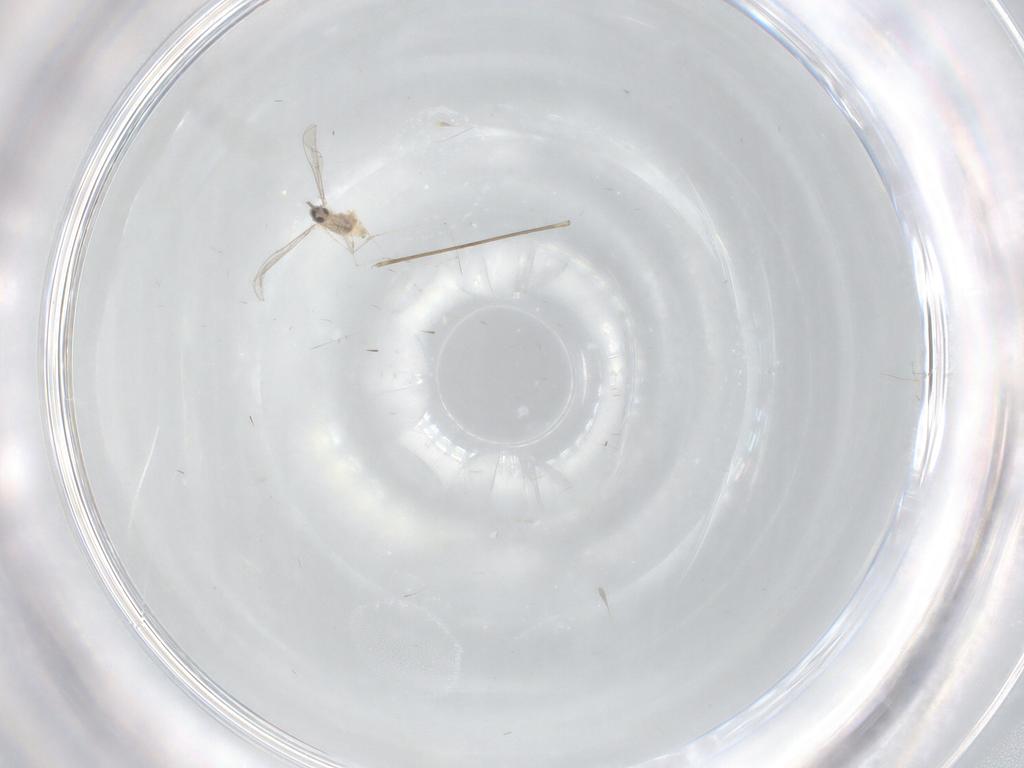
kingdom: Animalia
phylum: Arthropoda
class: Insecta
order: Diptera
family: Cecidomyiidae
